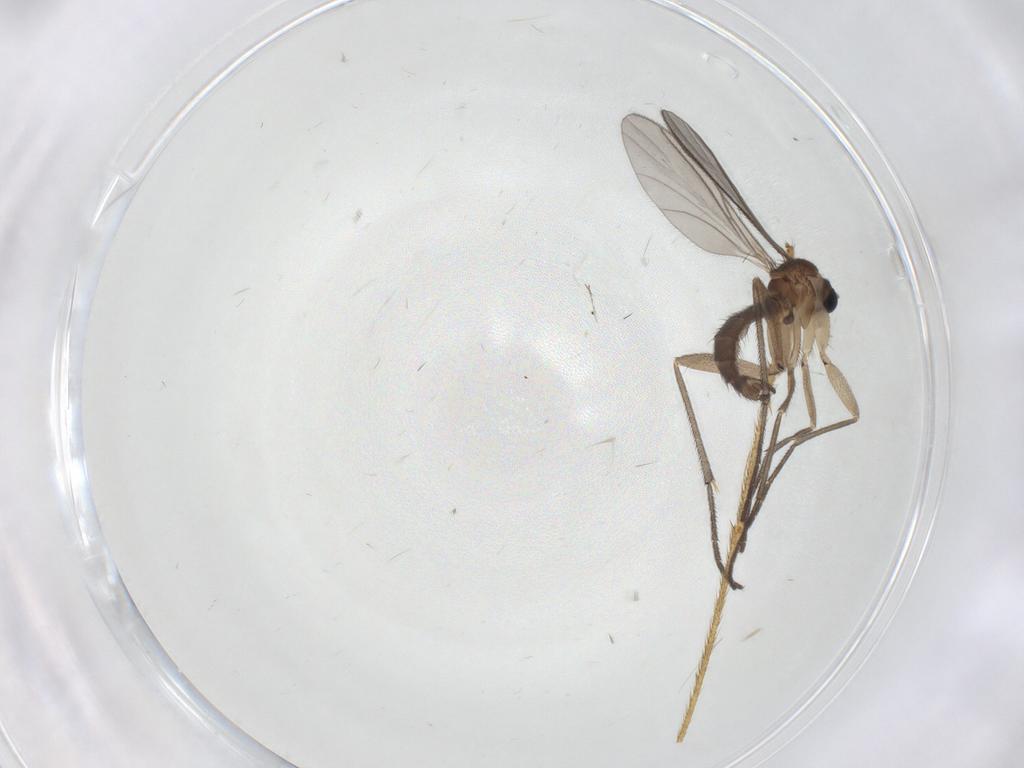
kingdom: Animalia
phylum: Arthropoda
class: Insecta
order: Diptera
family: Limoniidae
